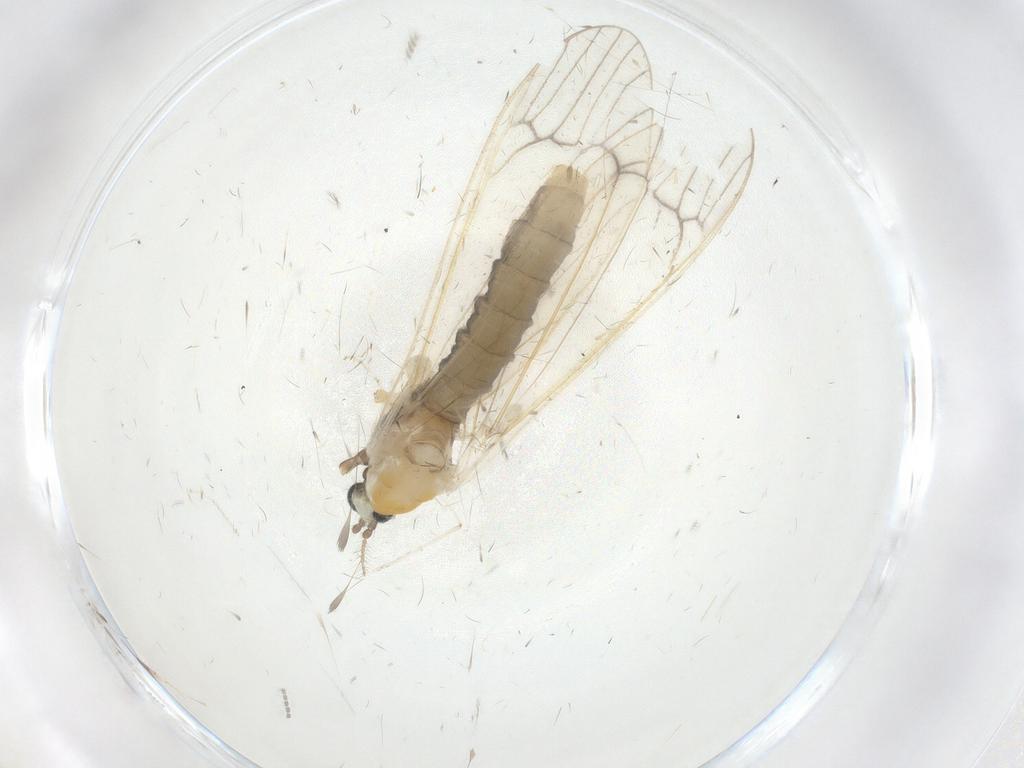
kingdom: Animalia
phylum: Arthropoda
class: Insecta
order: Diptera
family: Cecidomyiidae
